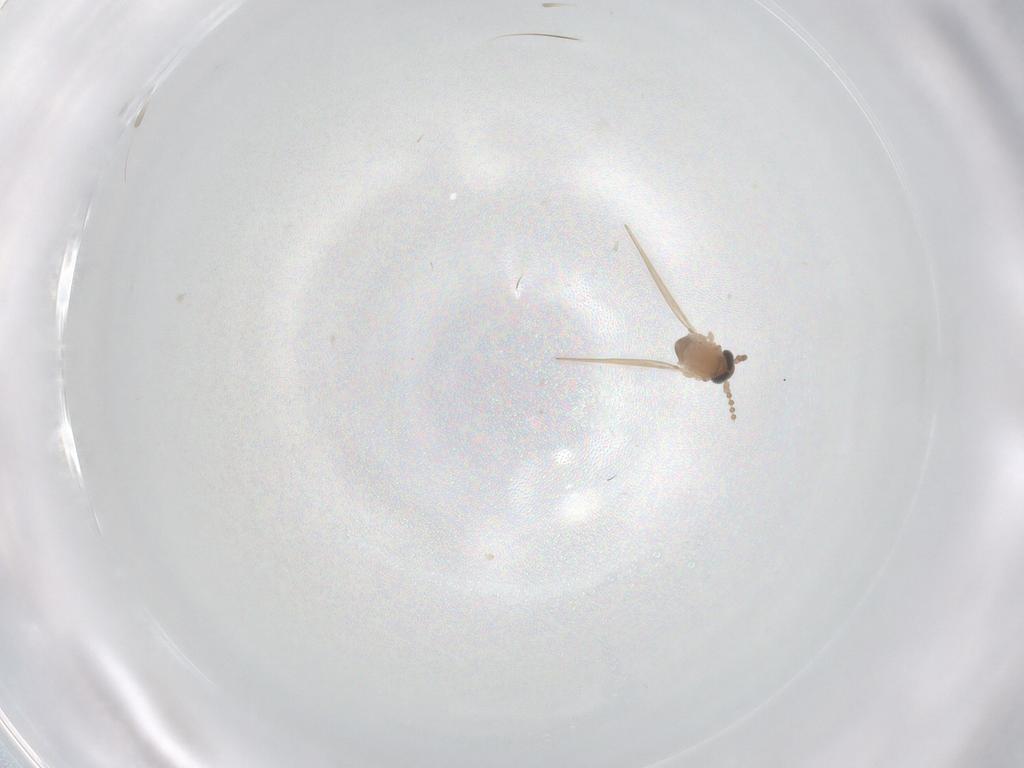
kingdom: Animalia
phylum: Arthropoda
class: Insecta
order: Diptera
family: Psychodidae
